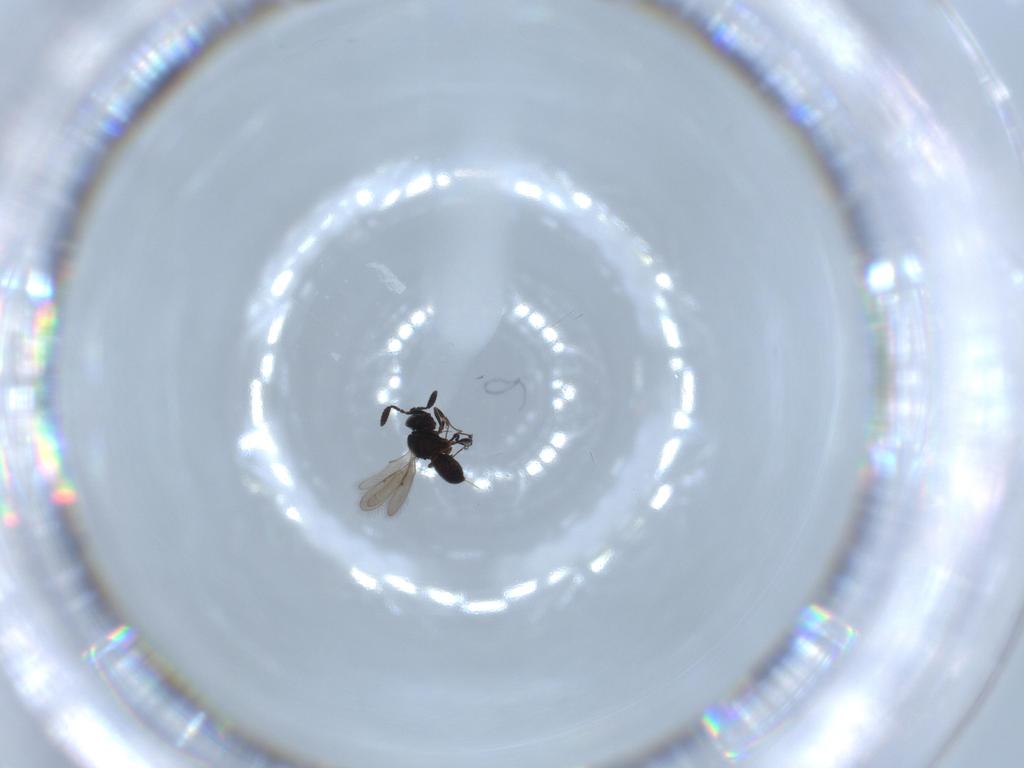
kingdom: Animalia
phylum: Arthropoda
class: Insecta
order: Hymenoptera
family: Scelionidae
